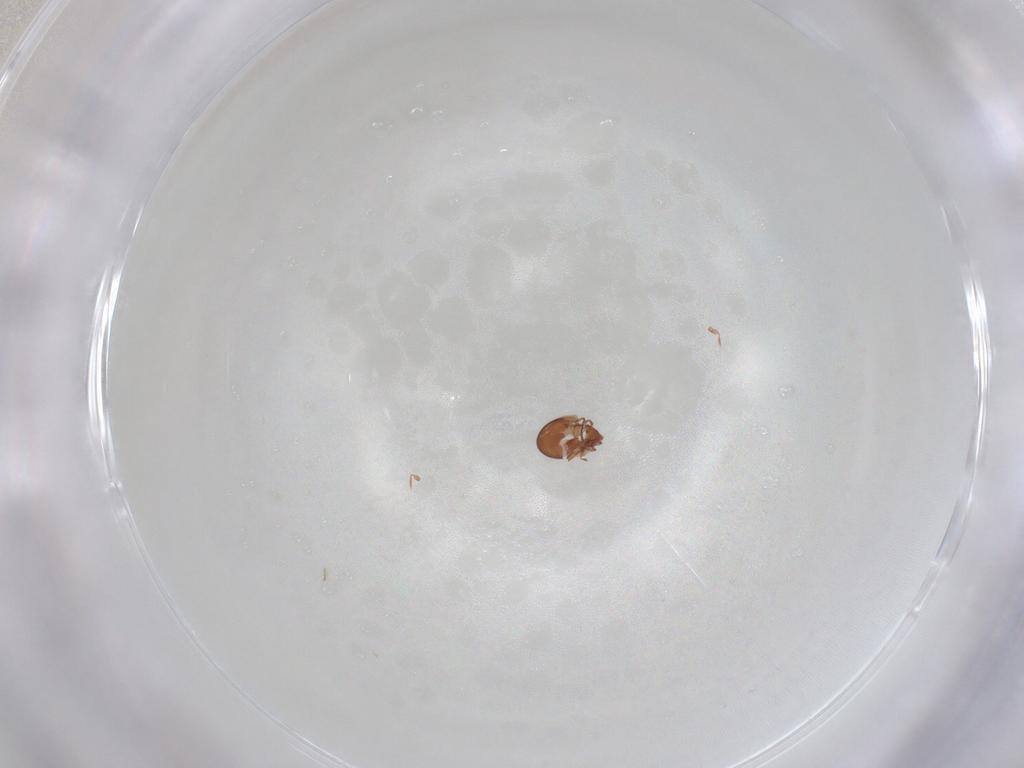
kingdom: Animalia
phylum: Arthropoda
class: Arachnida
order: Sarcoptiformes
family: Scheloribatidae
